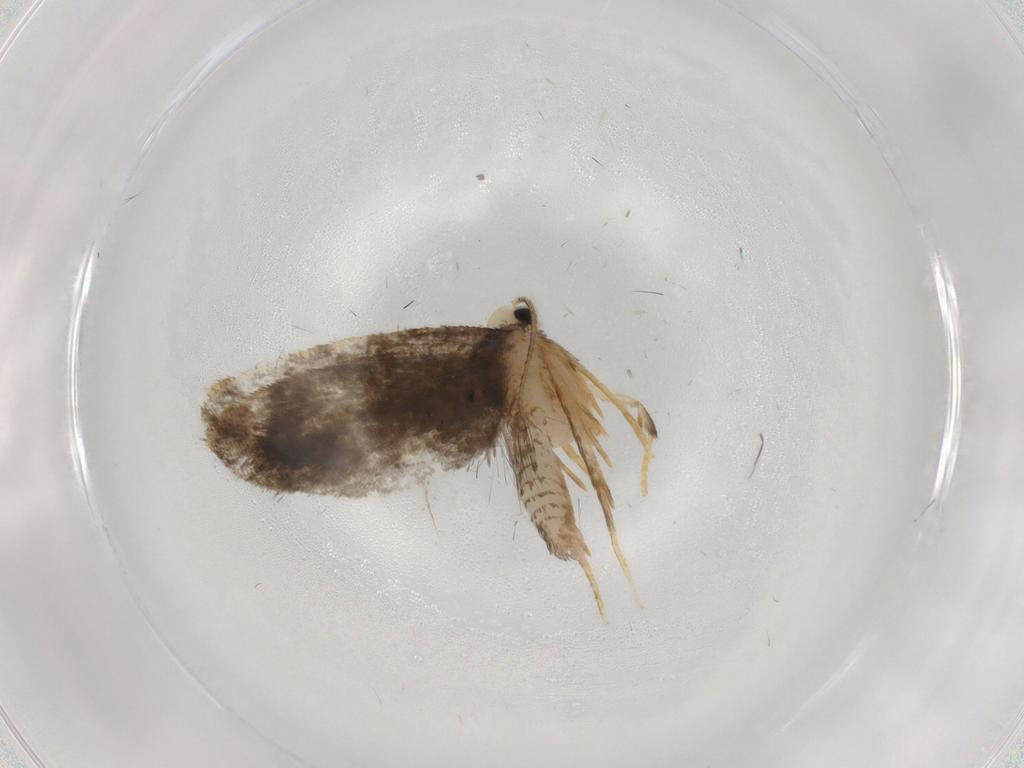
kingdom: Animalia
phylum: Arthropoda
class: Insecta
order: Lepidoptera
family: Psychidae
